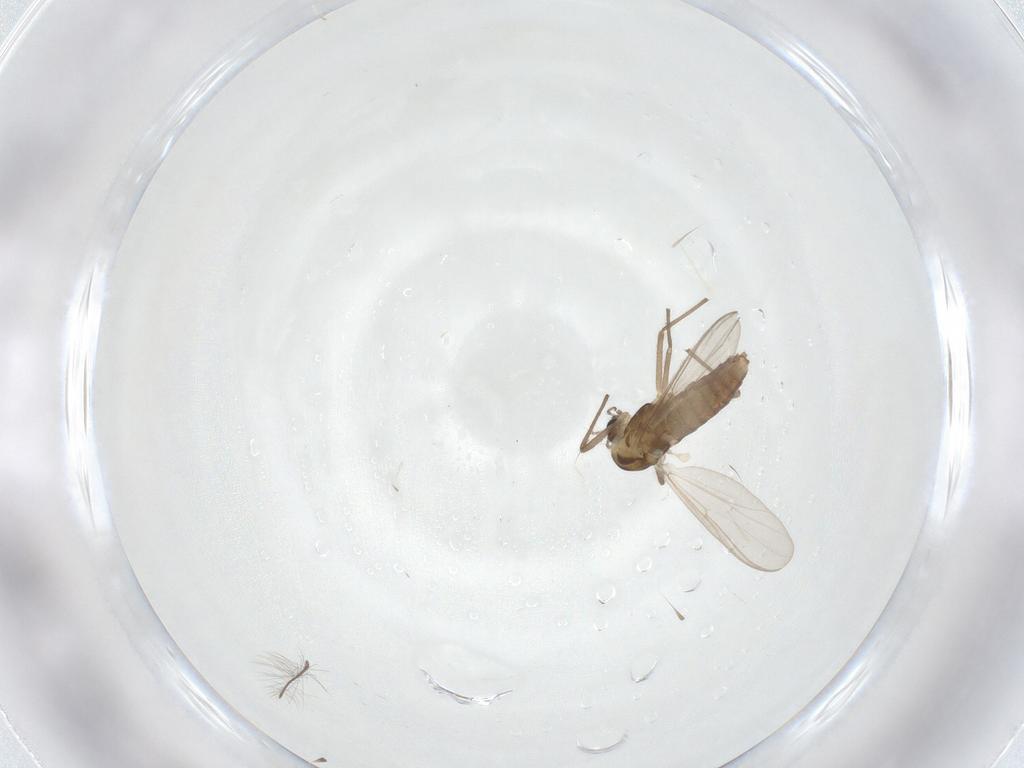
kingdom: Animalia
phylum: Arthropoda
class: Insecta
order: Diptera
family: Chironomidae
